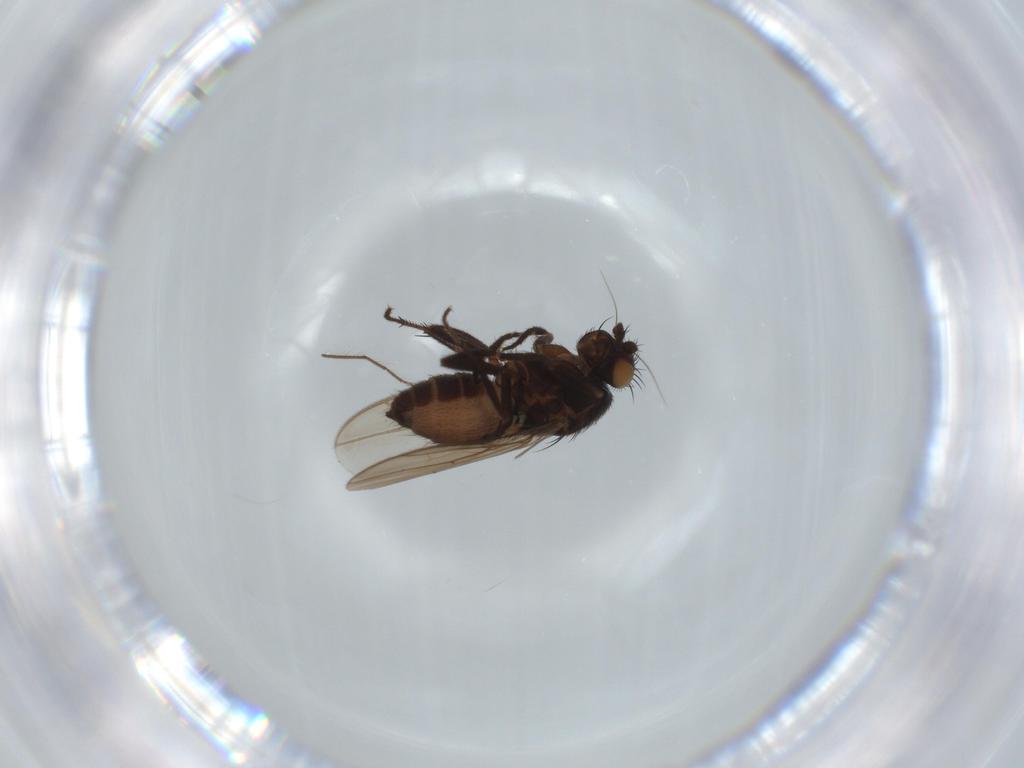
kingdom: Animalia
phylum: Arthropoda
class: Insecta
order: Diptera
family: Sphaeroceridae
